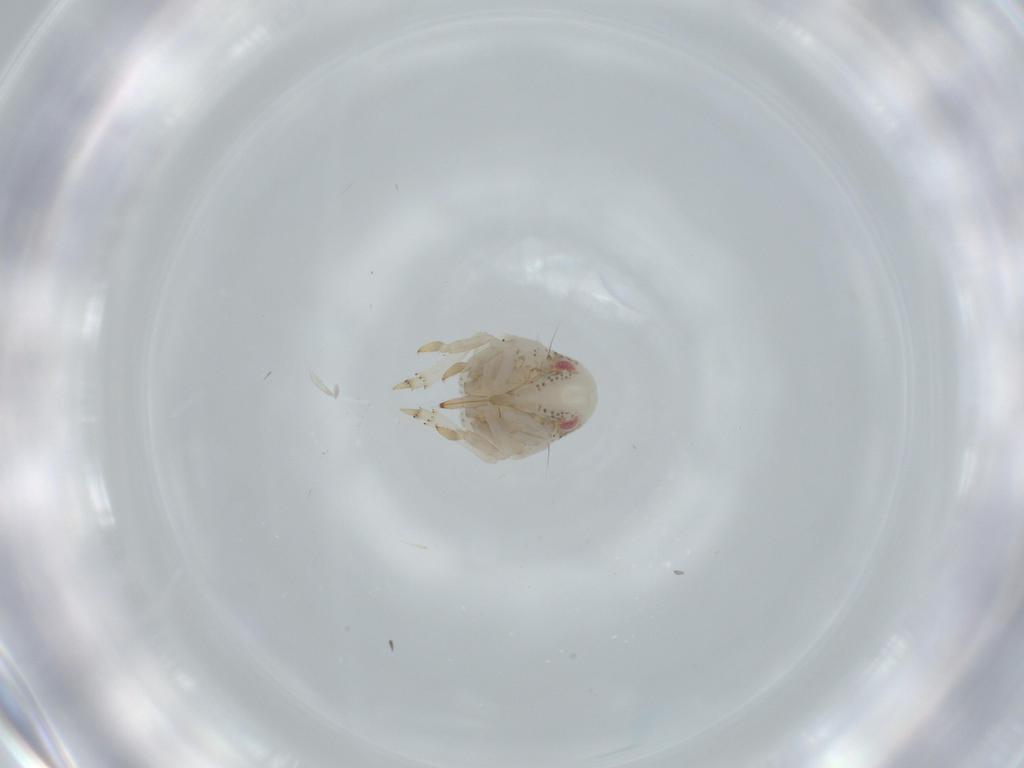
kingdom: Animalia
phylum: Arthropoda
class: Insecta
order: Hemiptera
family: Acanaloniidae
